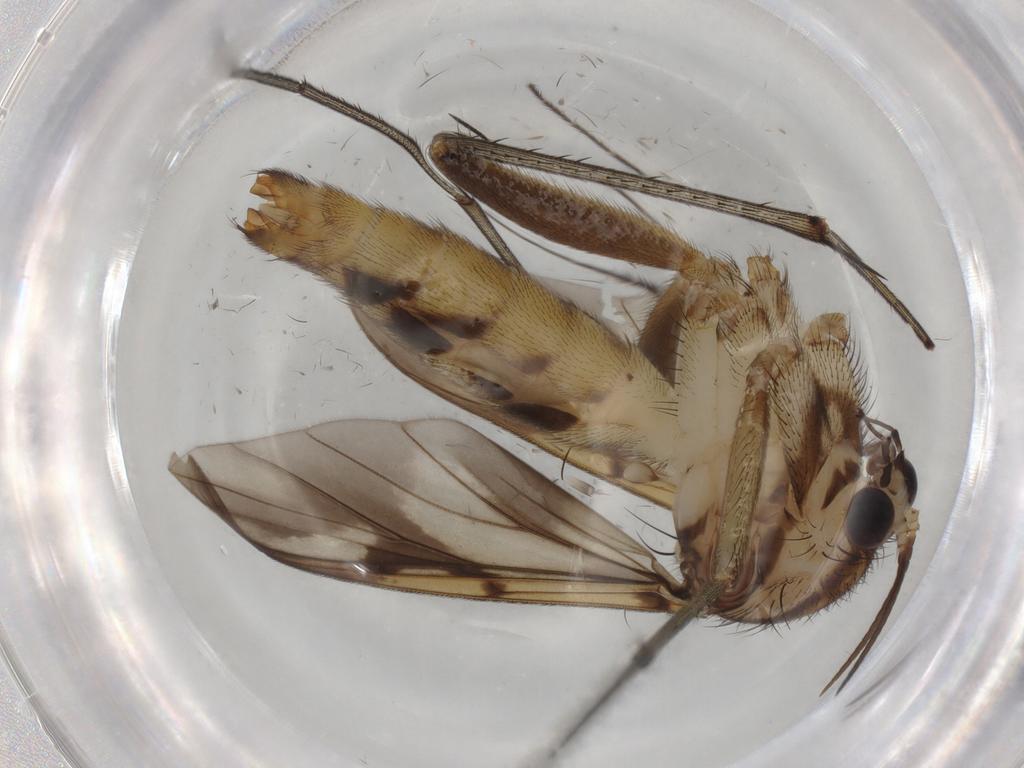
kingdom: Animalia
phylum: Arthropoda
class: Insecta
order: Diptera
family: Mycetophilidae
